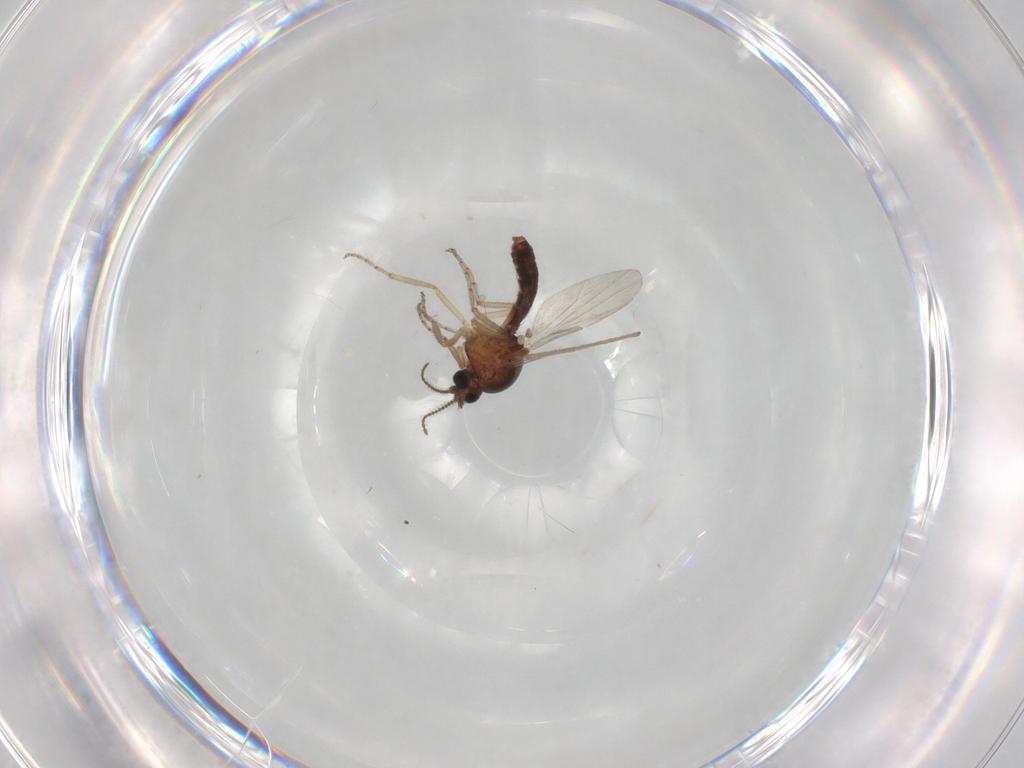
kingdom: Animalia
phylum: Arthropoda
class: Insecta
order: Diptera
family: Ceratopogonidae
